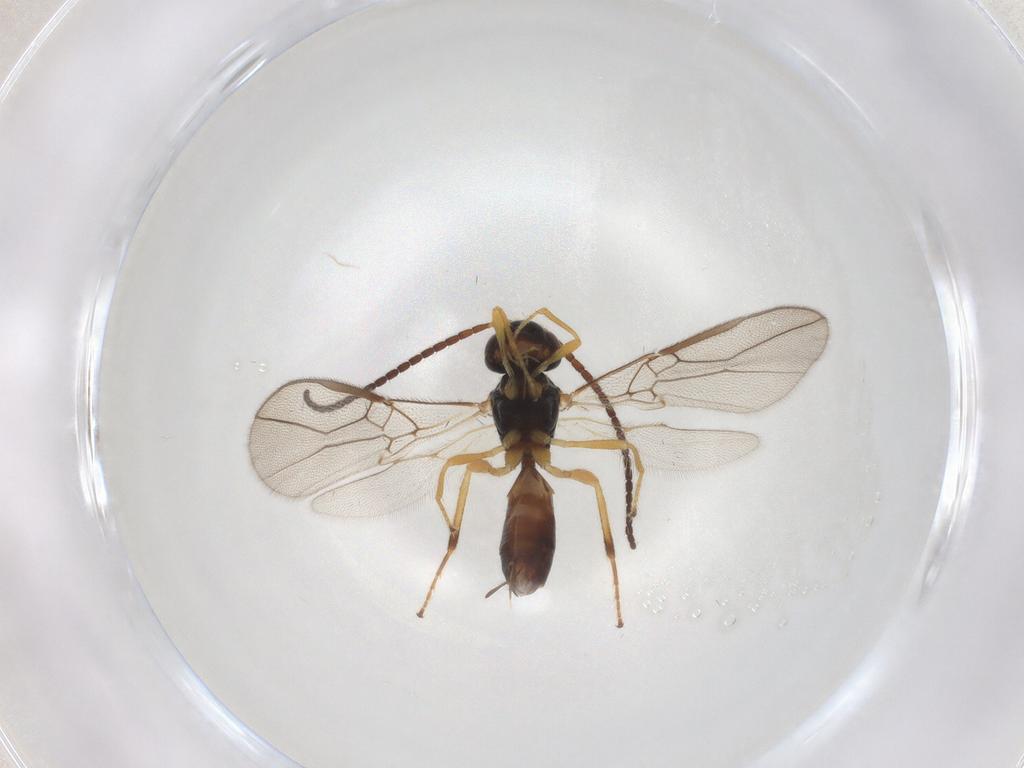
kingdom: Animalia
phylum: Arthropoda
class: Insecta
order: Hymenoptera
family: Braconidae
